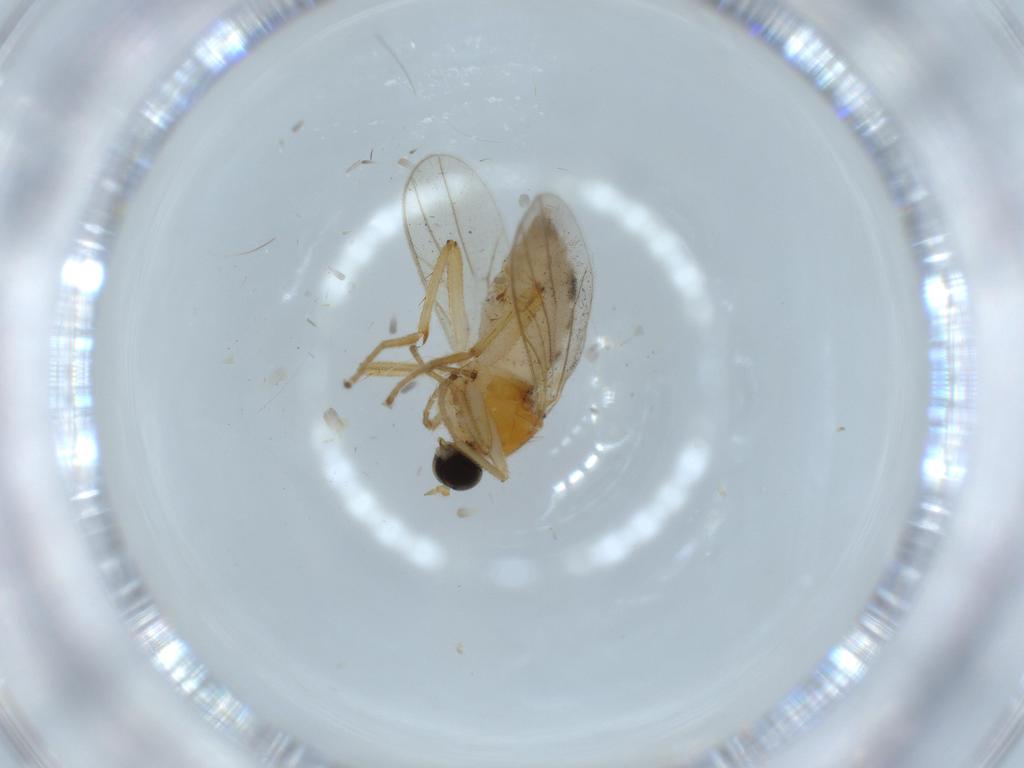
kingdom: Animalia
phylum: Arthropoda
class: Insecta
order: Diptera
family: Hybotidae
